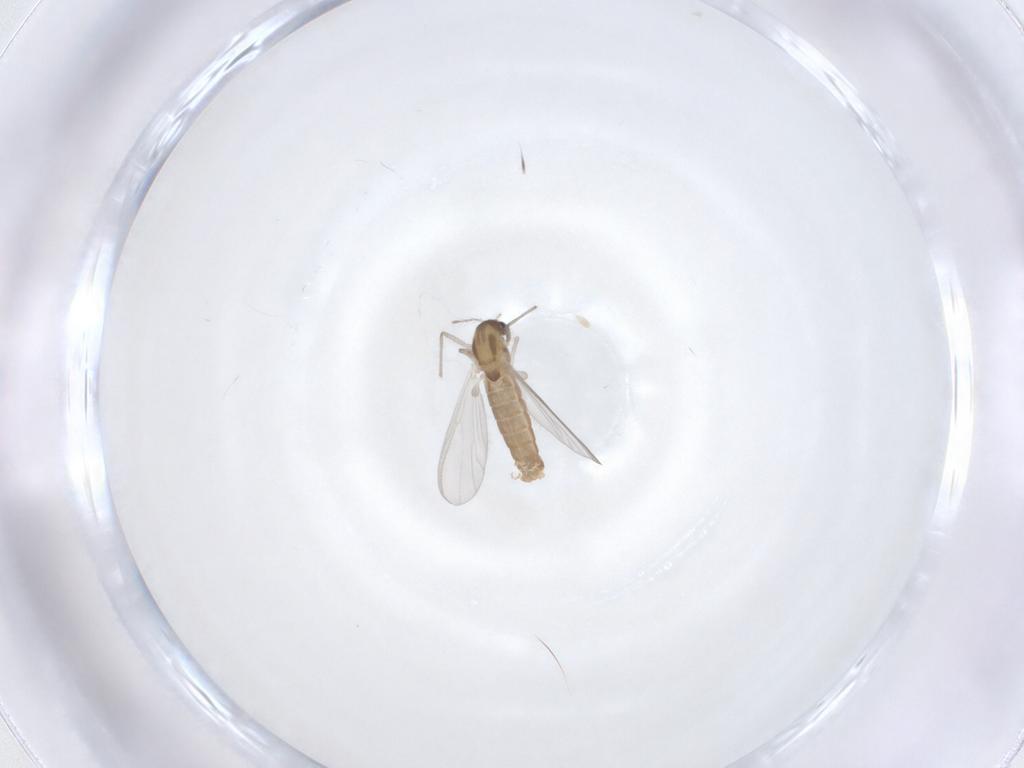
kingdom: Animalia
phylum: Arthropoda
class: Insecta
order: Diptera
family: Chironomidae
